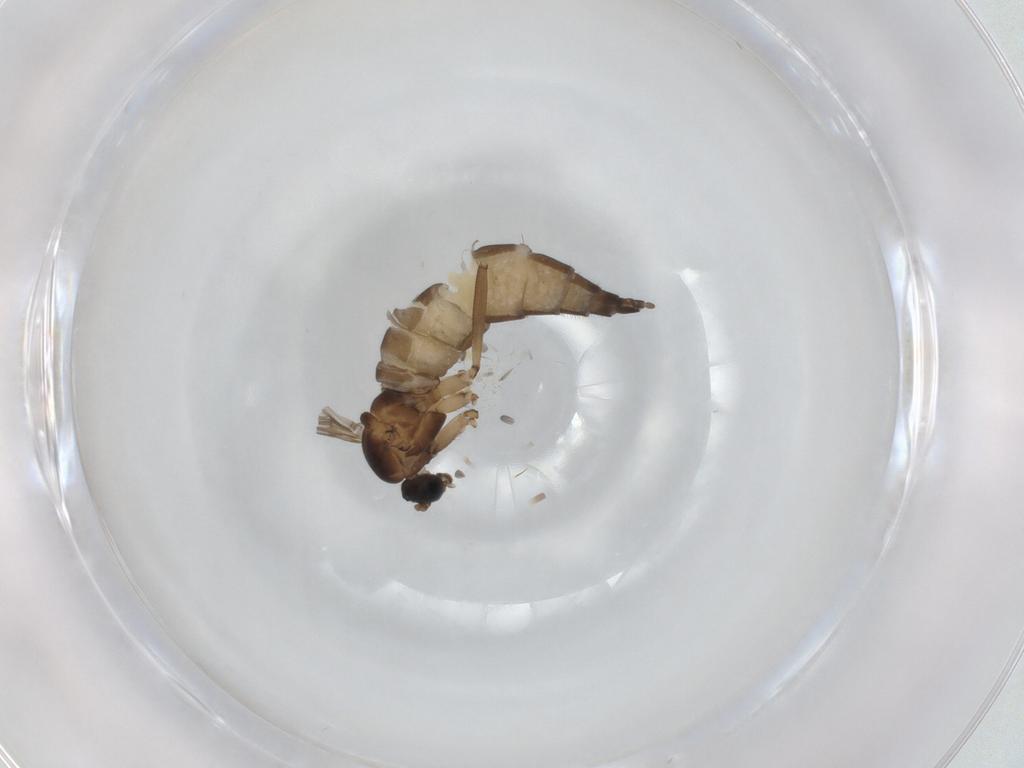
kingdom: Animalia
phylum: Arthropoda
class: Insecta
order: Diptera
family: Sciaridae
